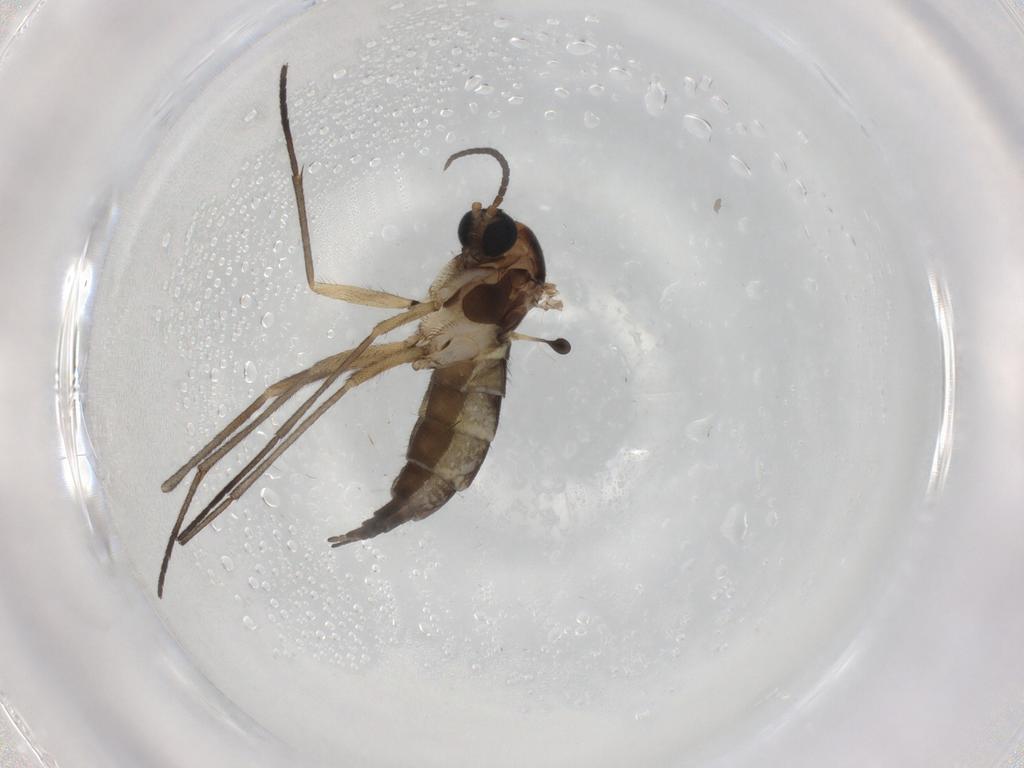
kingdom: Animalia
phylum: Arthropoda
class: Insecta
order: Diptera
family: Sciaridae
